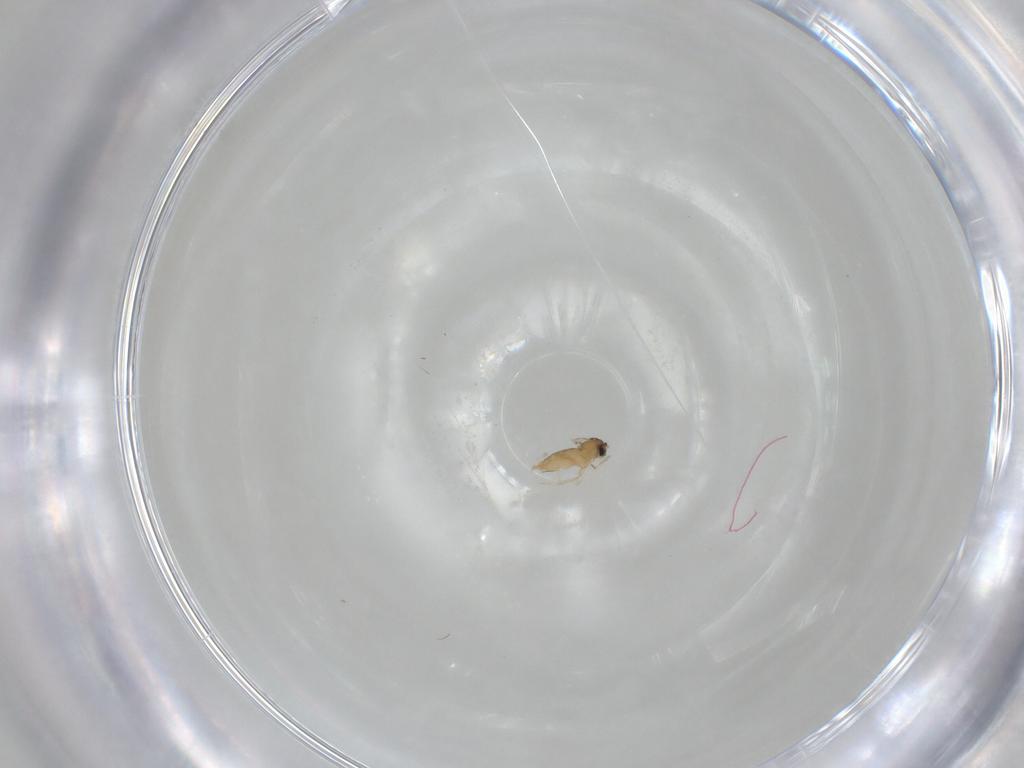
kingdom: Animalia
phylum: Arthropoda
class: Insecta
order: Diptera
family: Cecidomyiidae
